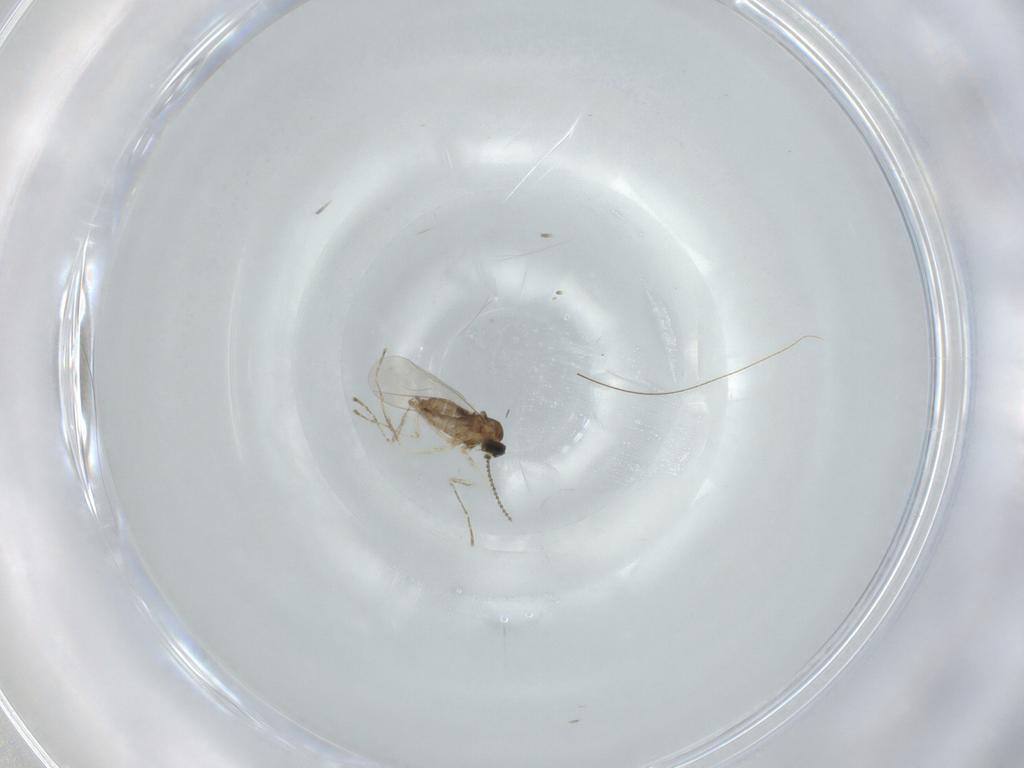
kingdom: Animalia
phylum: Arthropoda
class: Insecta
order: Diptera
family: Cecidomyiidae
